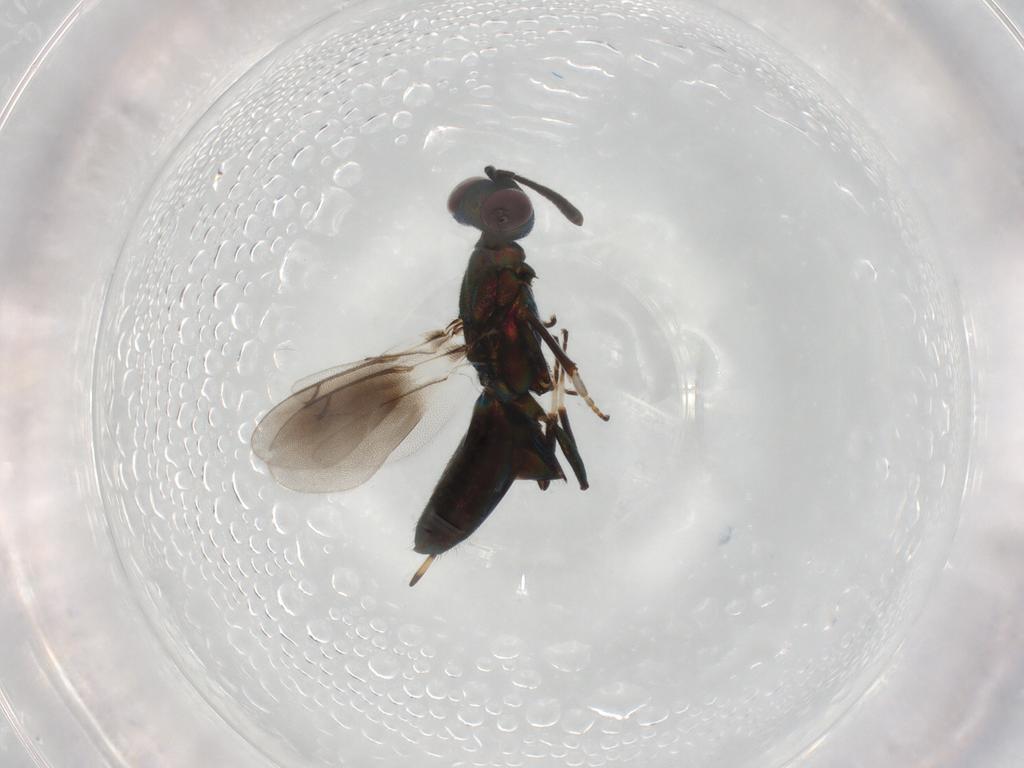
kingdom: Animalia
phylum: Arthropoda
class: Insecta
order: Hymenoptera
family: Eupelmidae
